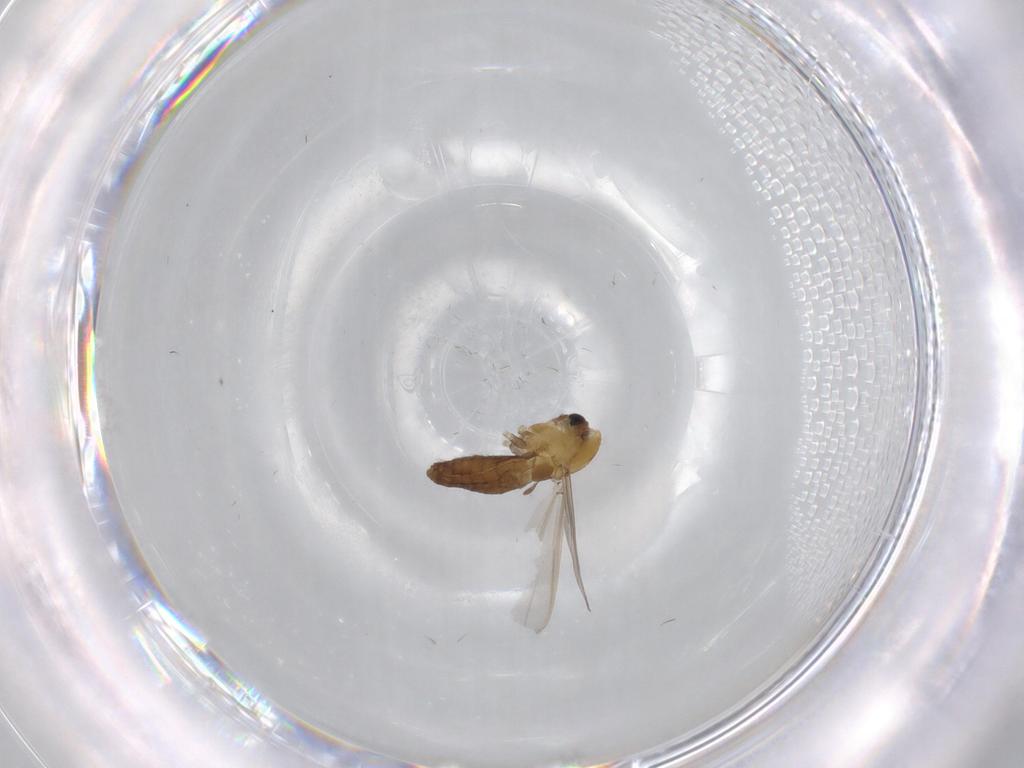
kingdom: Animalia
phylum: Arthropoda
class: Insecta
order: Diptera
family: Chironomidae
